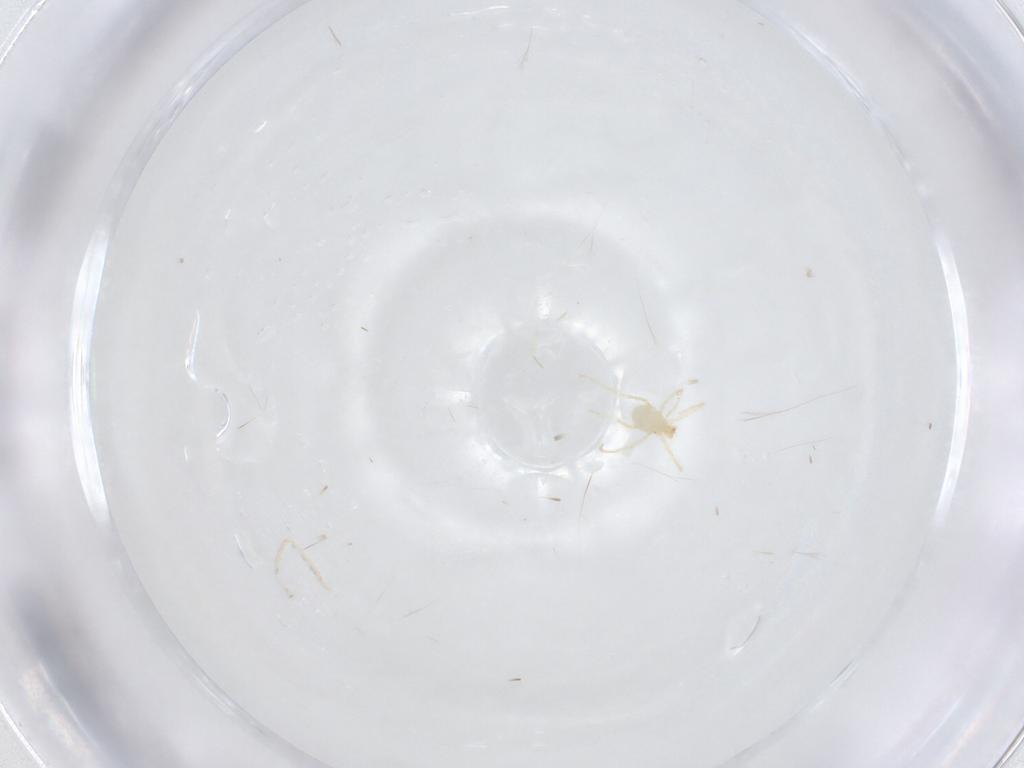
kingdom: Animalia
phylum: Arthropoda
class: Arachnida
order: Trombidiformes
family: Erythraeidae
